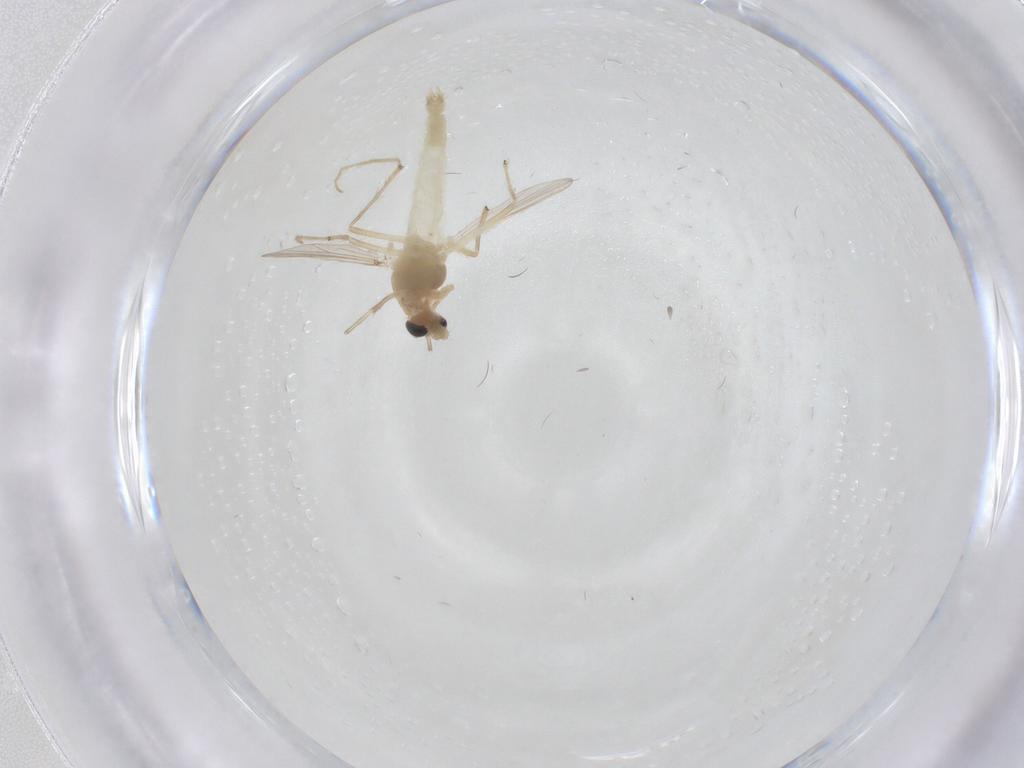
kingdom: Animalia
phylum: Arthropoda
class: Insecta
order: Diptera
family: Chironomidae
